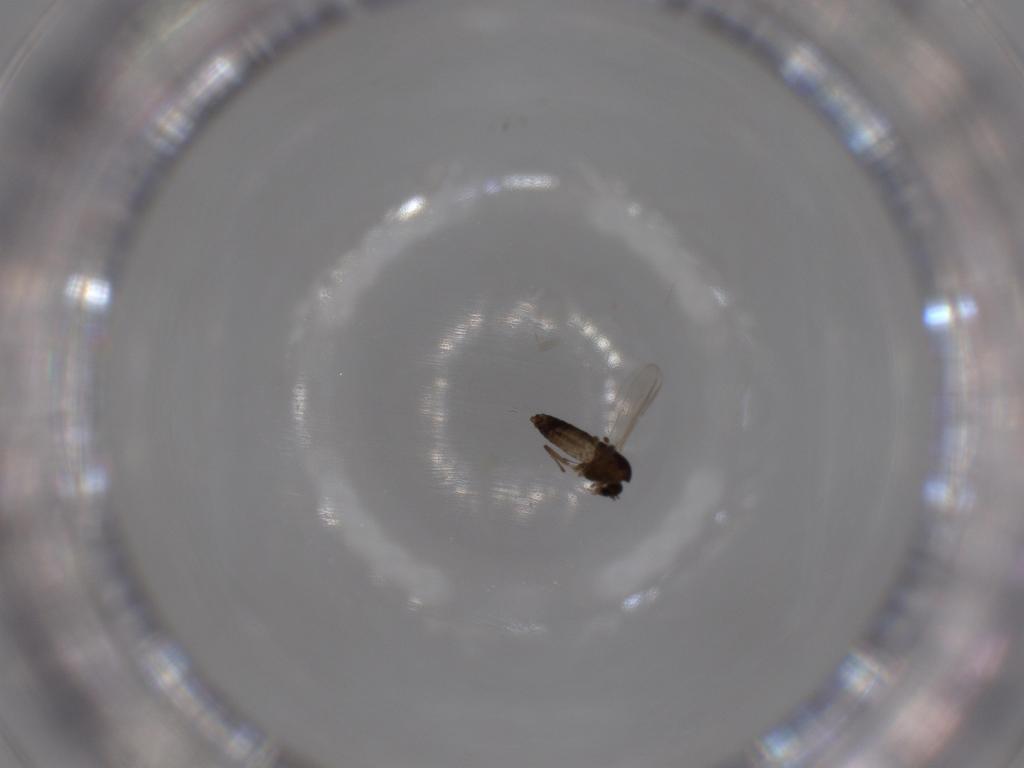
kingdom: Animalia
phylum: Arthropoda
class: Insecta
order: Diptera
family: Chironomidae
